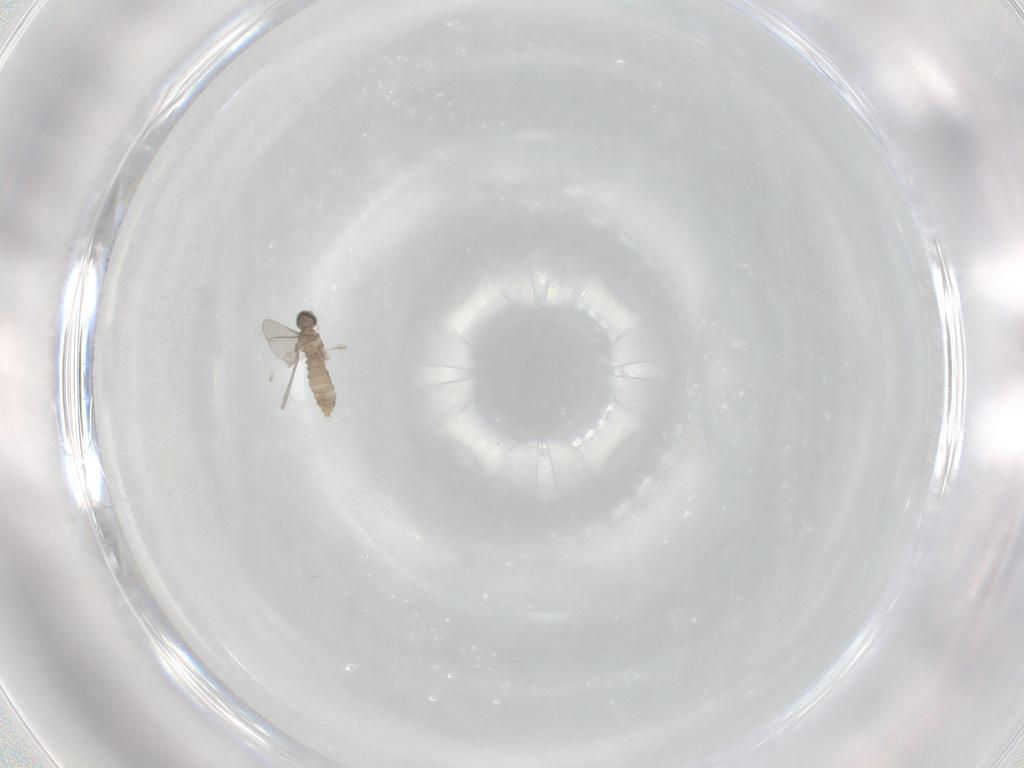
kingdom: Animalia
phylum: Arthropoda
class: Insecta
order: Diptera
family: Cecidomyiidae
